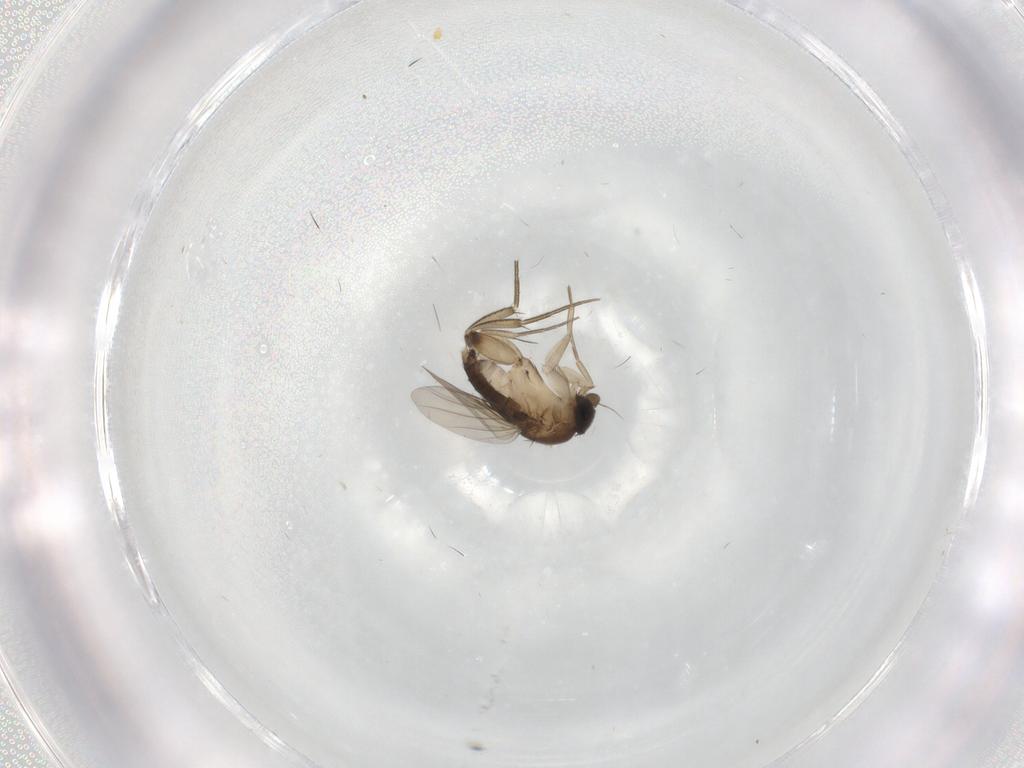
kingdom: Animalia
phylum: Arthropoda
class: Insecta
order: Diptera
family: Phoridae
